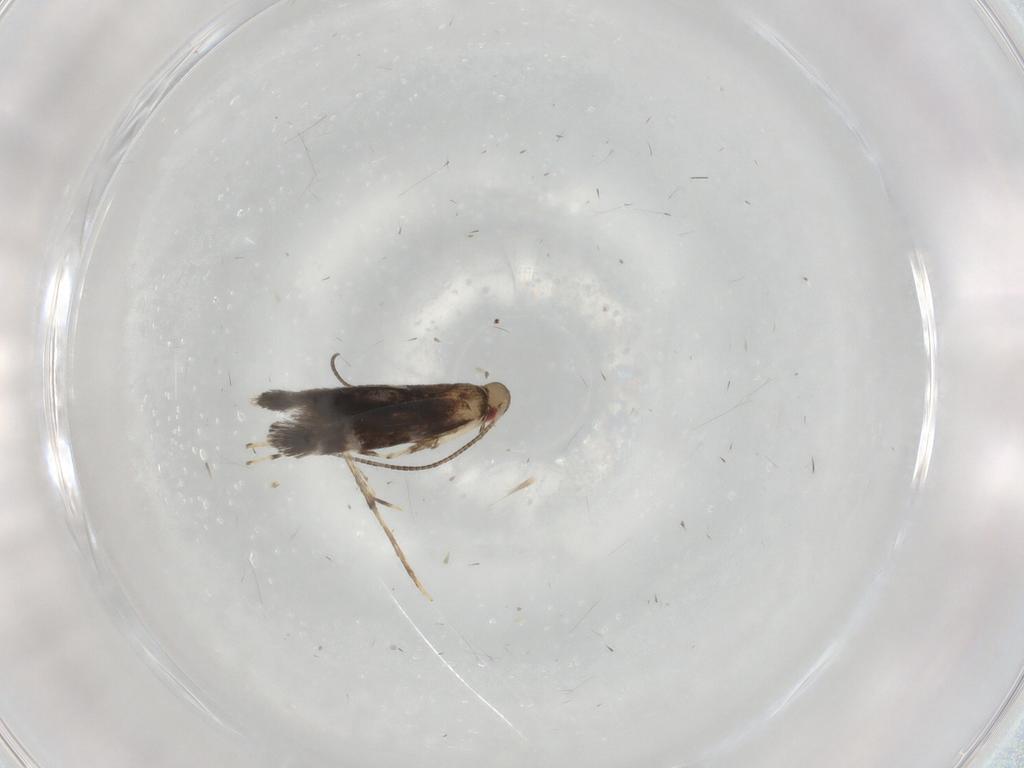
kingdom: Animalia
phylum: Arthropoda
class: Insecta
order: Lepidoptera
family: Gracillariidae
